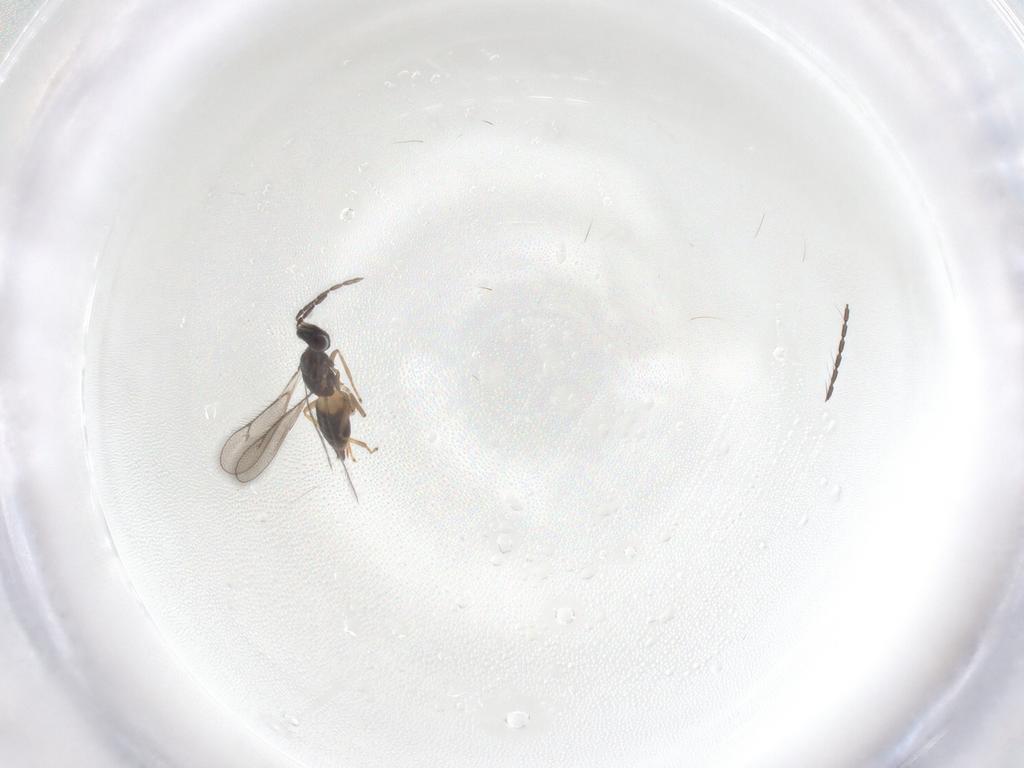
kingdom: Animalia
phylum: Arthropoda
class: Insecta
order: Hymenoptera
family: Eulophidae
